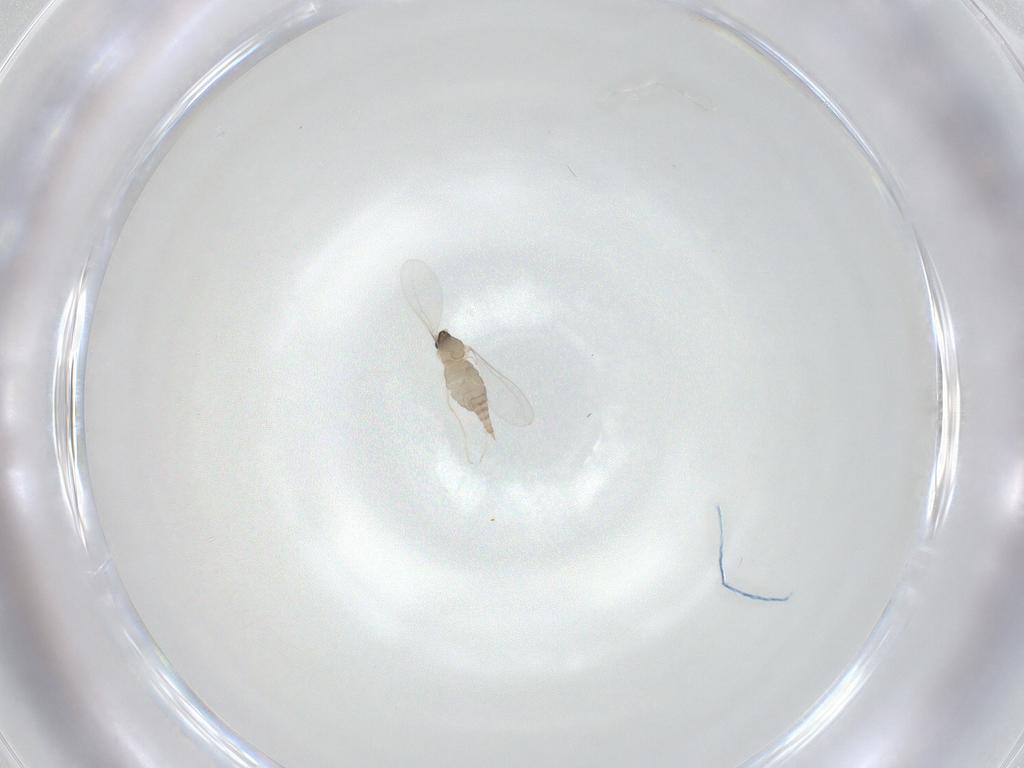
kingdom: Animalia
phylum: Arthropoda
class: Insecta
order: Diptera
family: Cecidomyiidae
